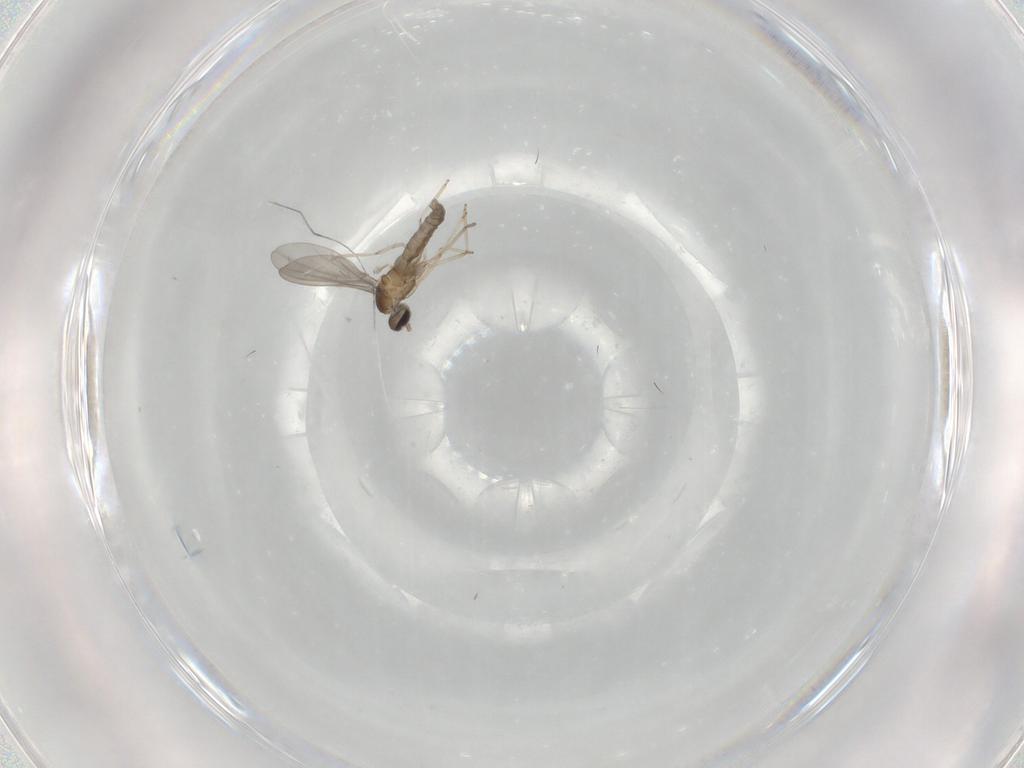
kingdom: Animalia
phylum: Arthropoda
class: Insecta
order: Diptera
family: Cecidomyiidae
